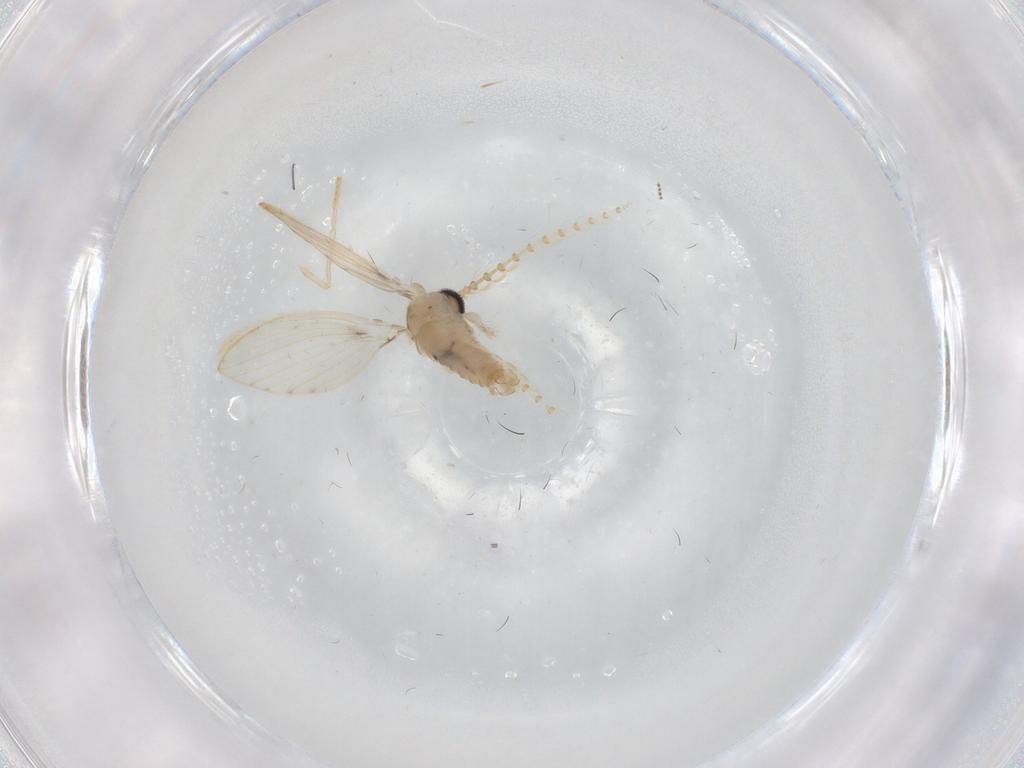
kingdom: Animalia
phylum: Arthropoda
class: Insecta
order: Diptera
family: Psychodidae
